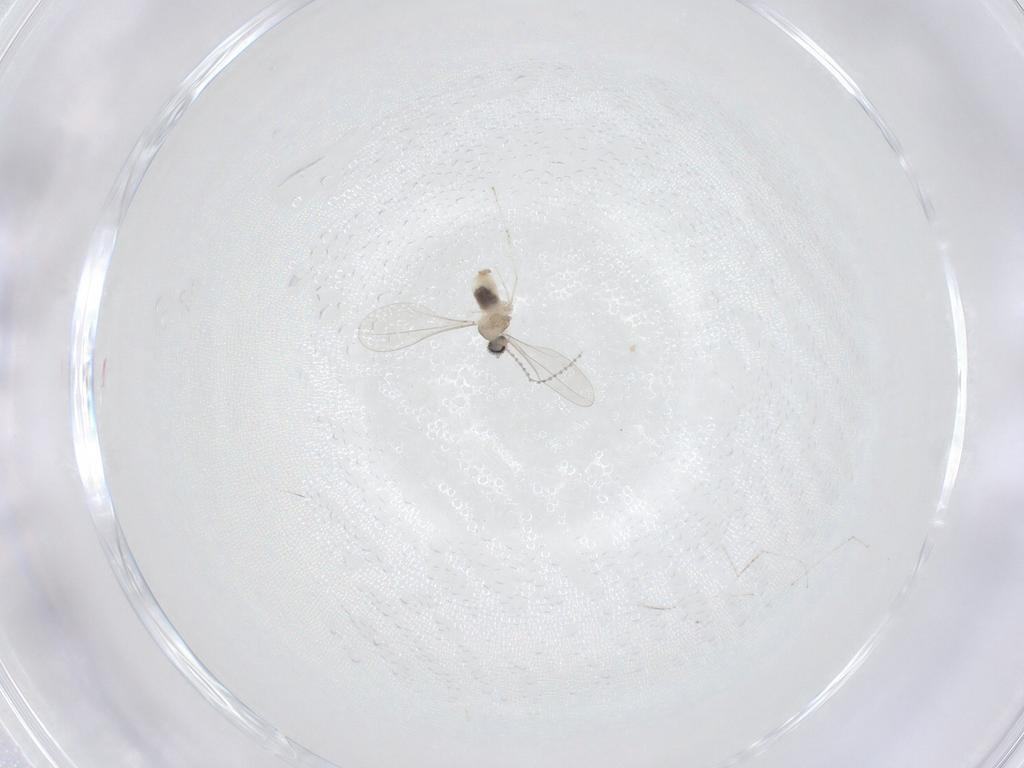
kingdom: Animalia
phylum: Arthropoda
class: Insecta
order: Diptera
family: Cecidomyiidae
